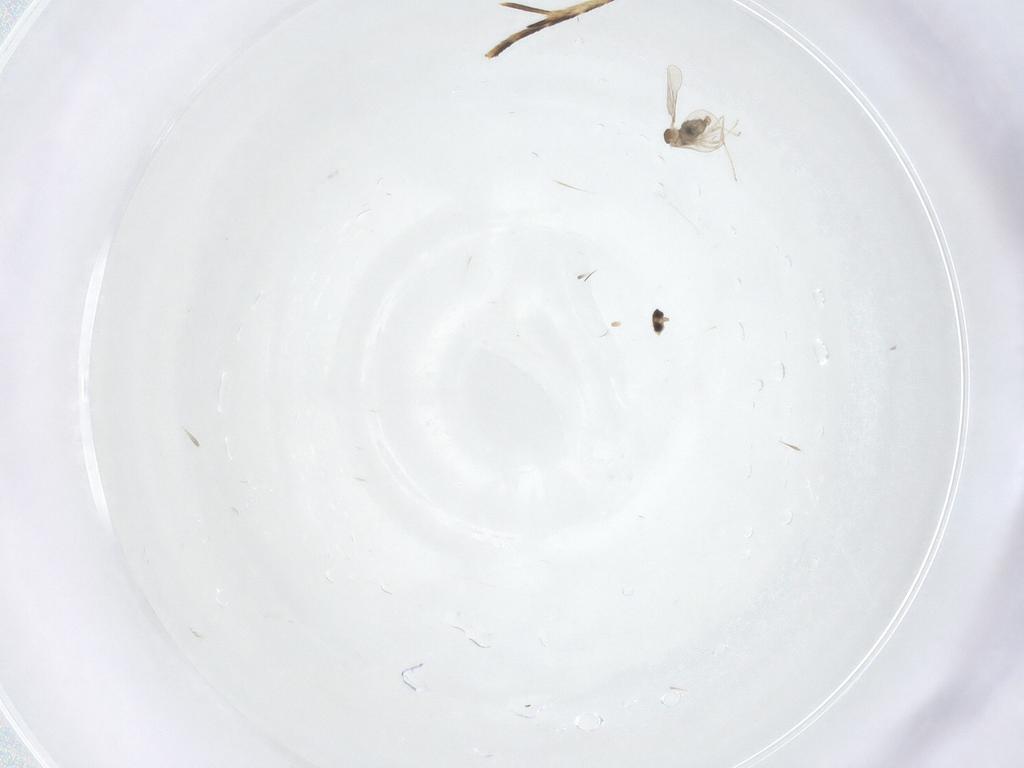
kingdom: Animalia
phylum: Arthropoda
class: Insecta
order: Diptera
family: Cecidomyiidae
